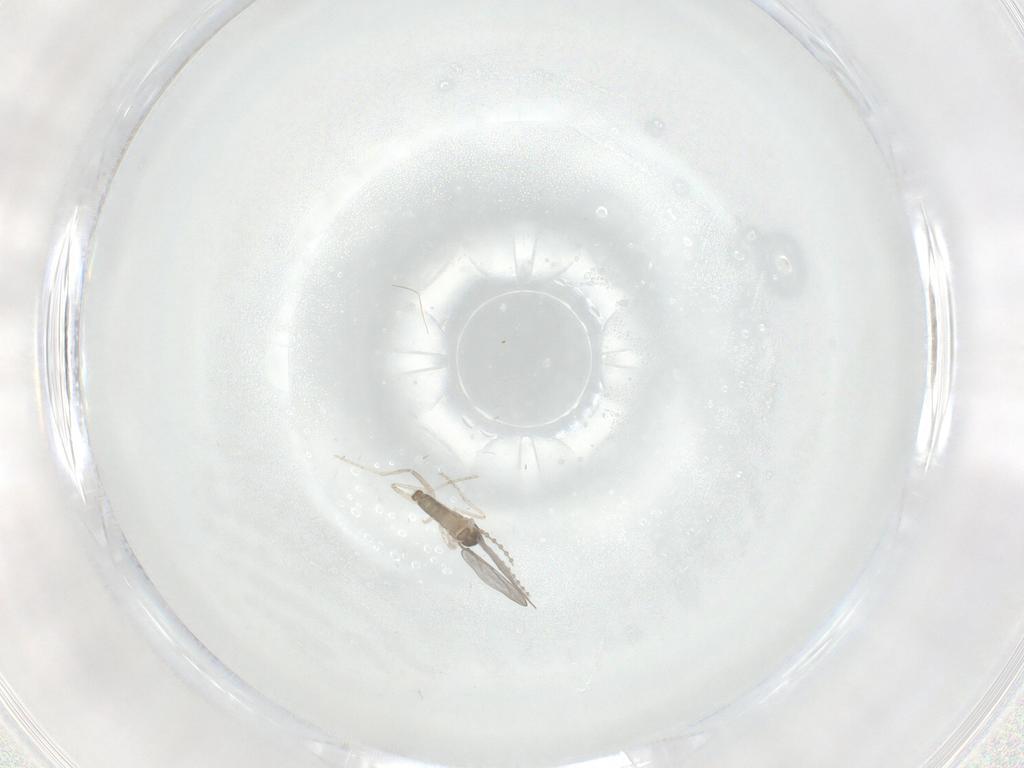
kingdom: Animalia
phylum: Arthropoda
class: Insecta
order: Diptera
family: Cecidomyiidae
